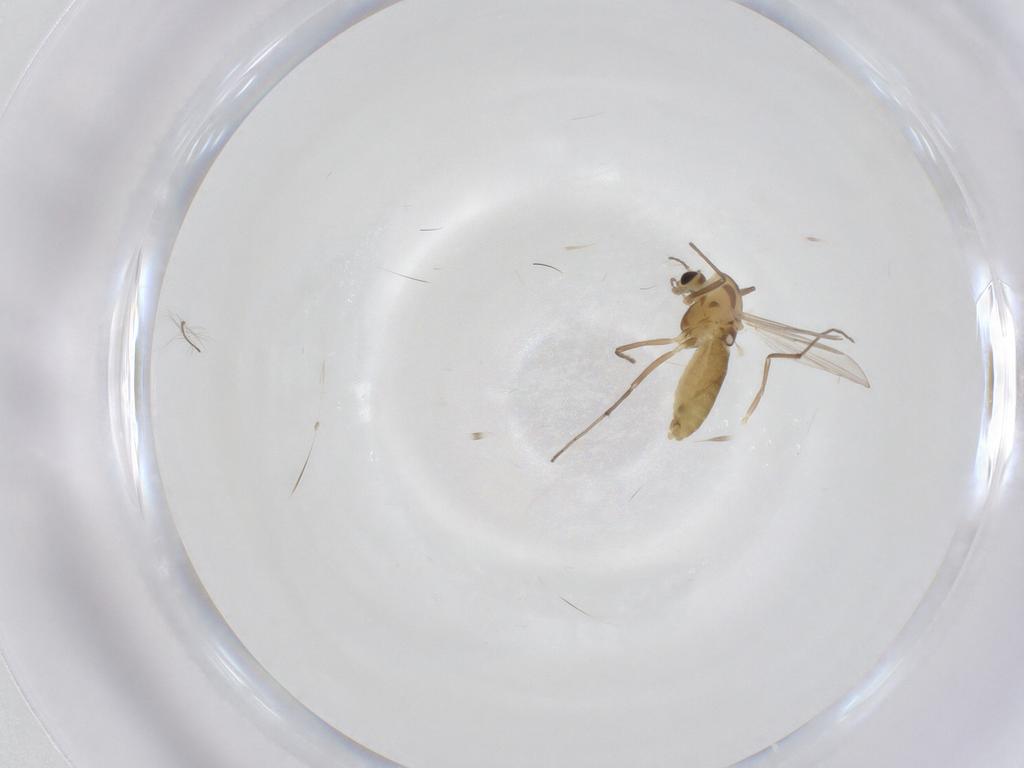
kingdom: Animalia
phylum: Arthropoda
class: Insecta
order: Diptera
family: Chironomidae
